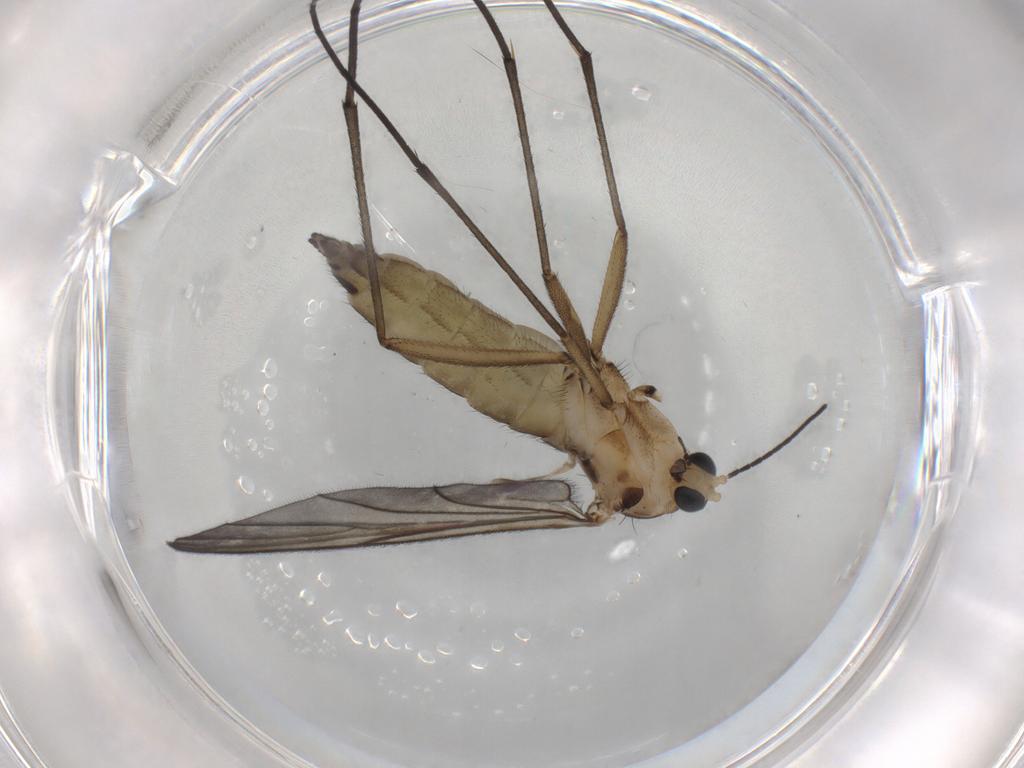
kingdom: Animalia
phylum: Arthropoda
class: Insecta
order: Diptera
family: Sciaridae
